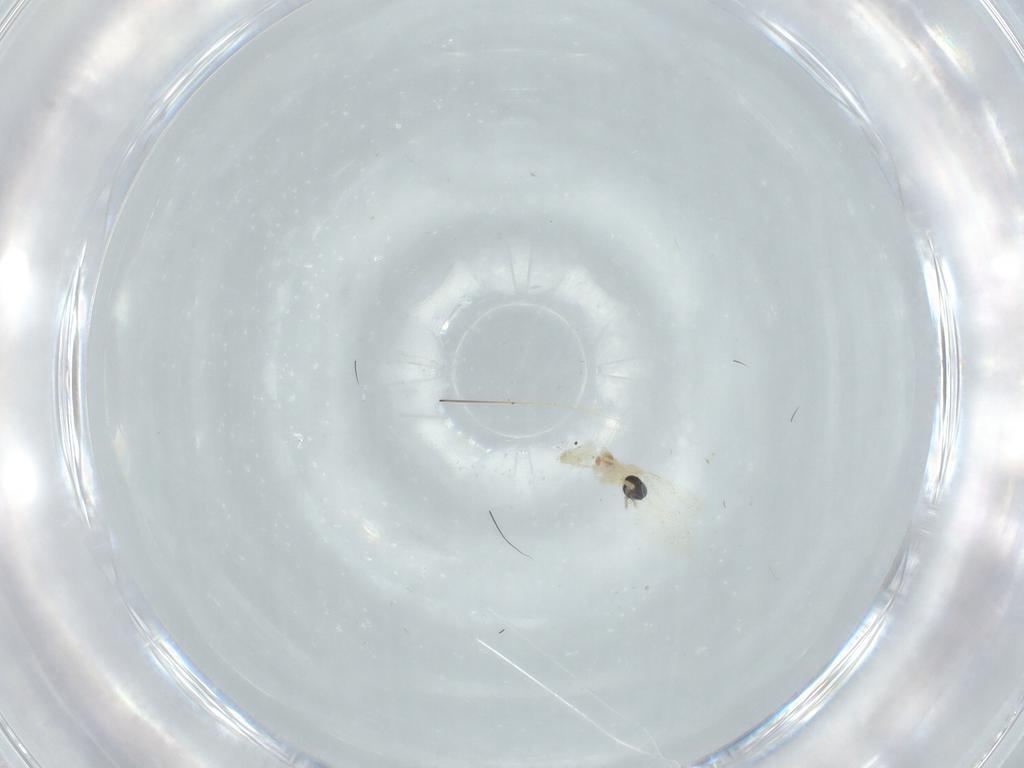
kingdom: Animalia
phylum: Arthropoda
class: Insecta
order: Diptera
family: Cecidomyiidae
